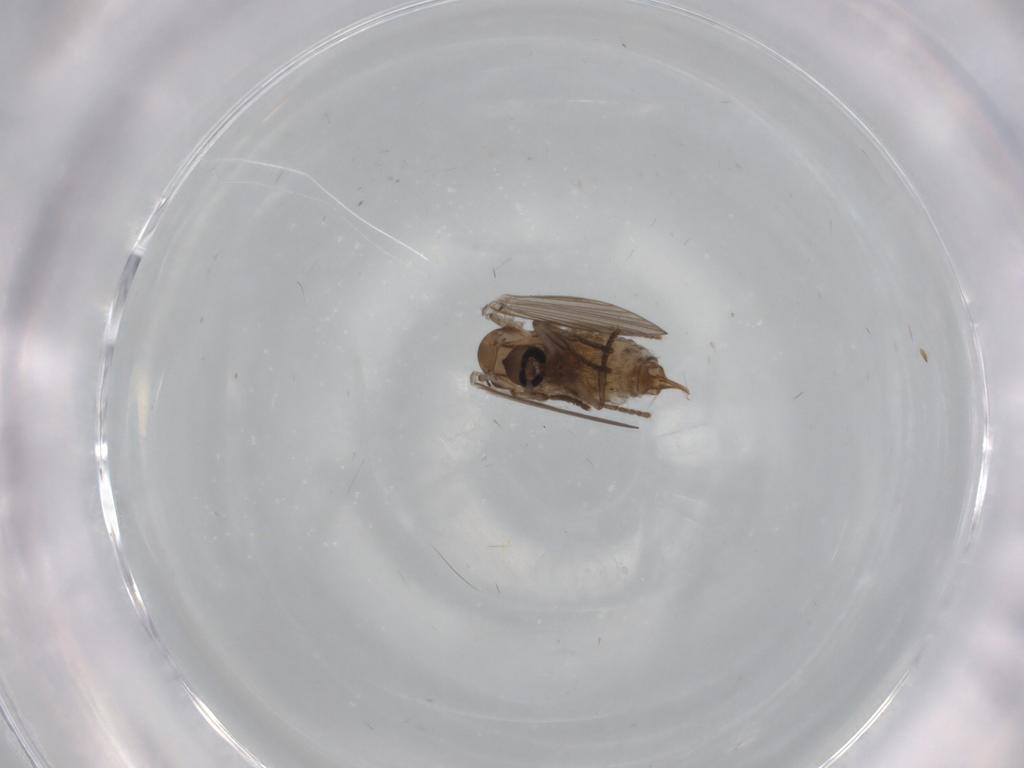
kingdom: Animalia
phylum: Arthropoda
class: Insecta
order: Diptera
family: Psychodidae
